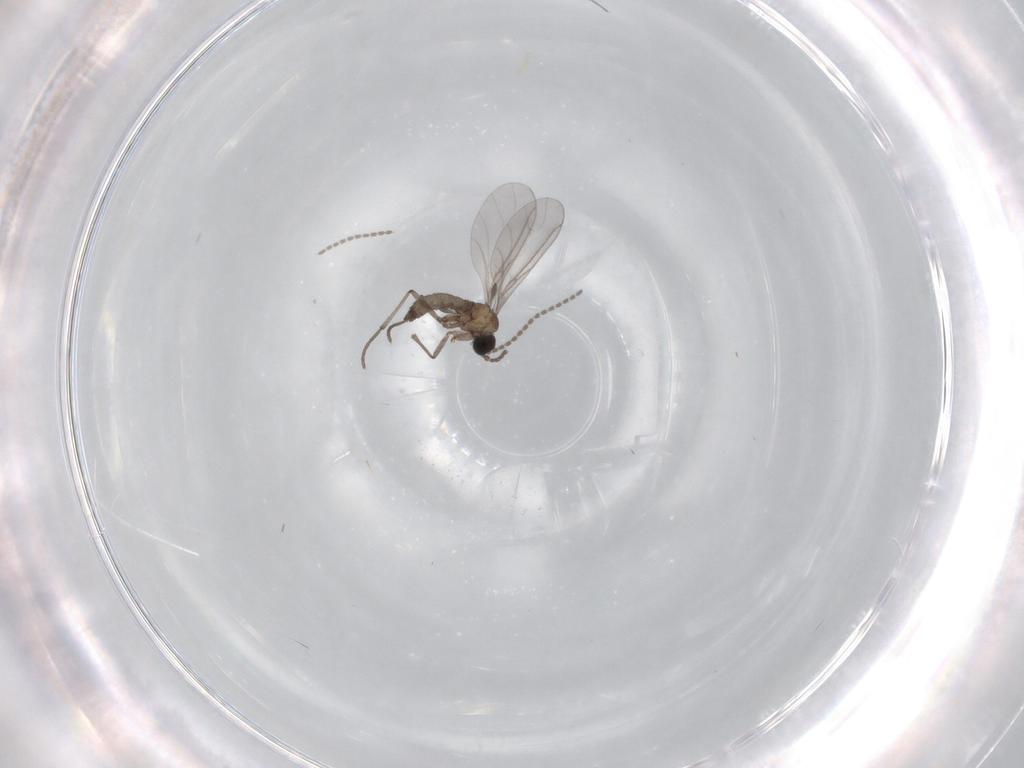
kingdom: Animalia
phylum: Arthropoda
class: Insecta
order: Diptera
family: Sciaridae
